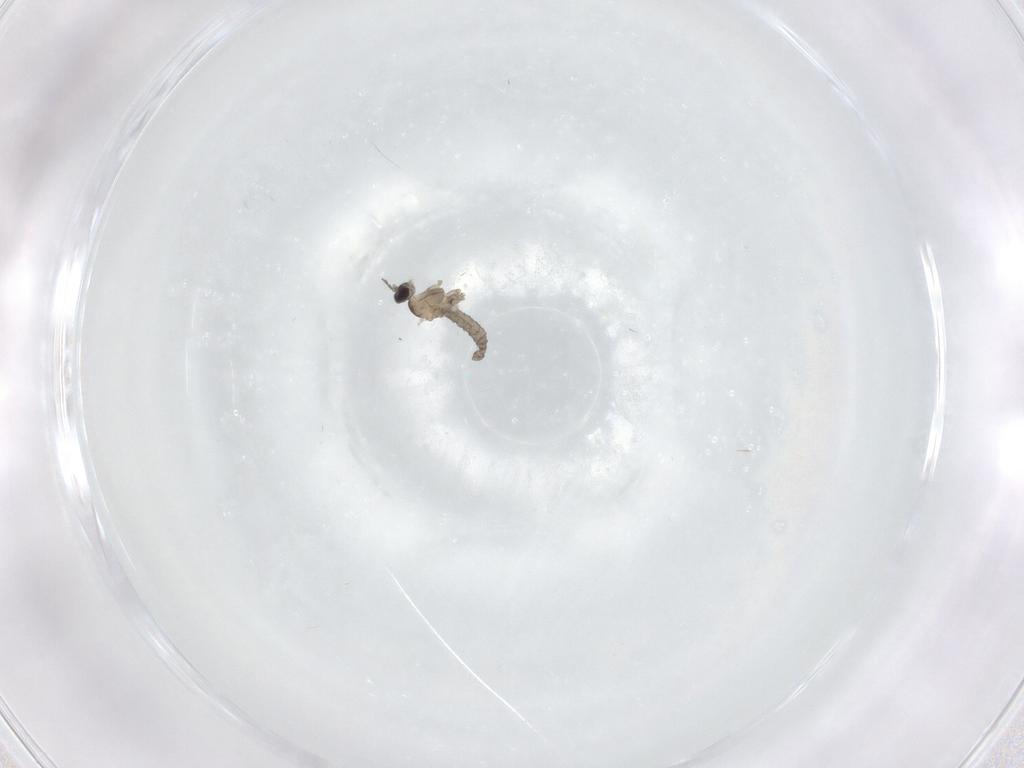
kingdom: Animalia
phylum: Arthropoda
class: Insecta
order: Diptera
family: Cecidomyiidae
